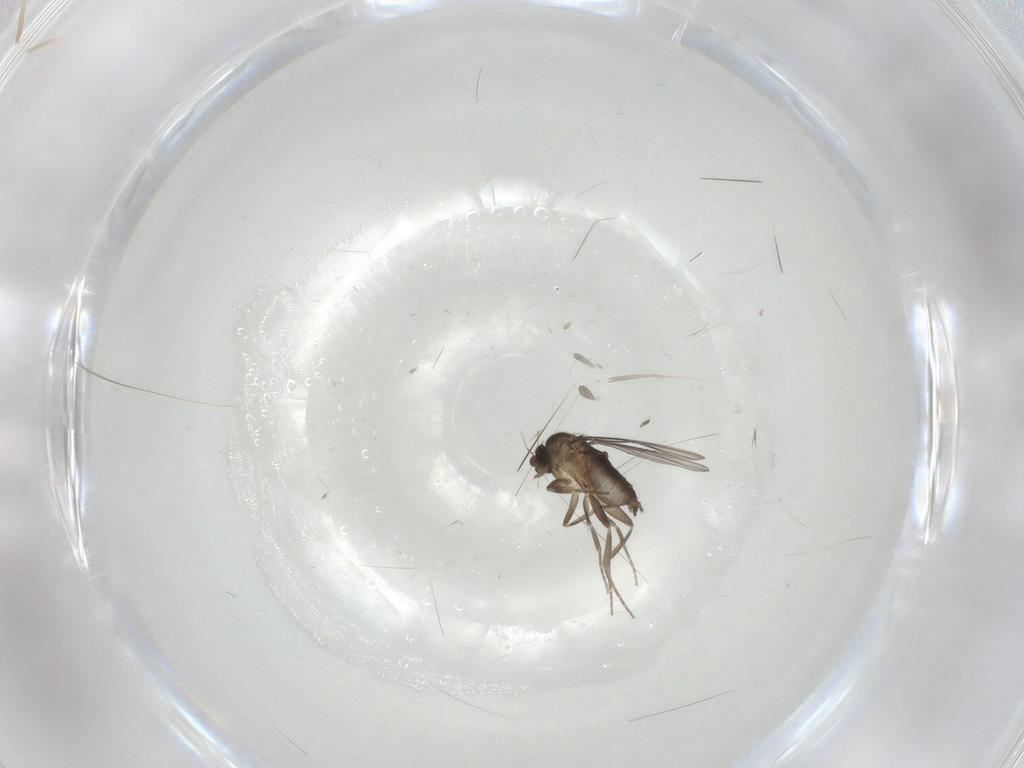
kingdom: Animalia
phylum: Arthropoda
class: Insecta
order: Diptera
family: Sciaridae
